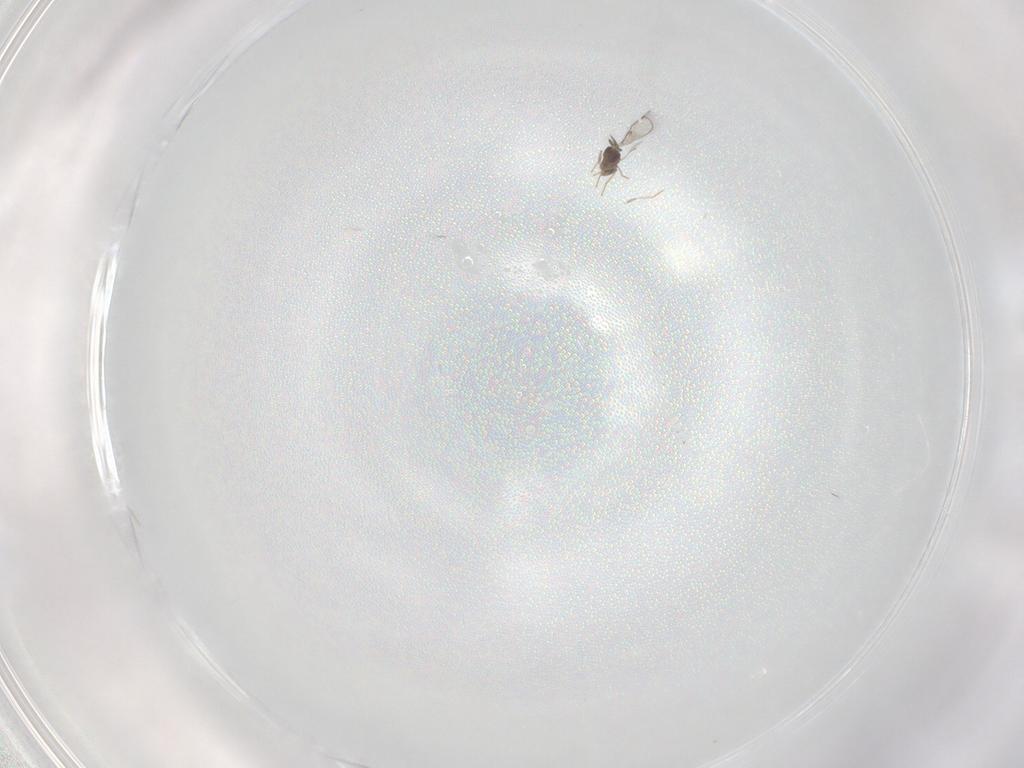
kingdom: Animalia
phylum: Arthropoda
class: Insecta
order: Hymenoptera
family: Trichogrammatidae
